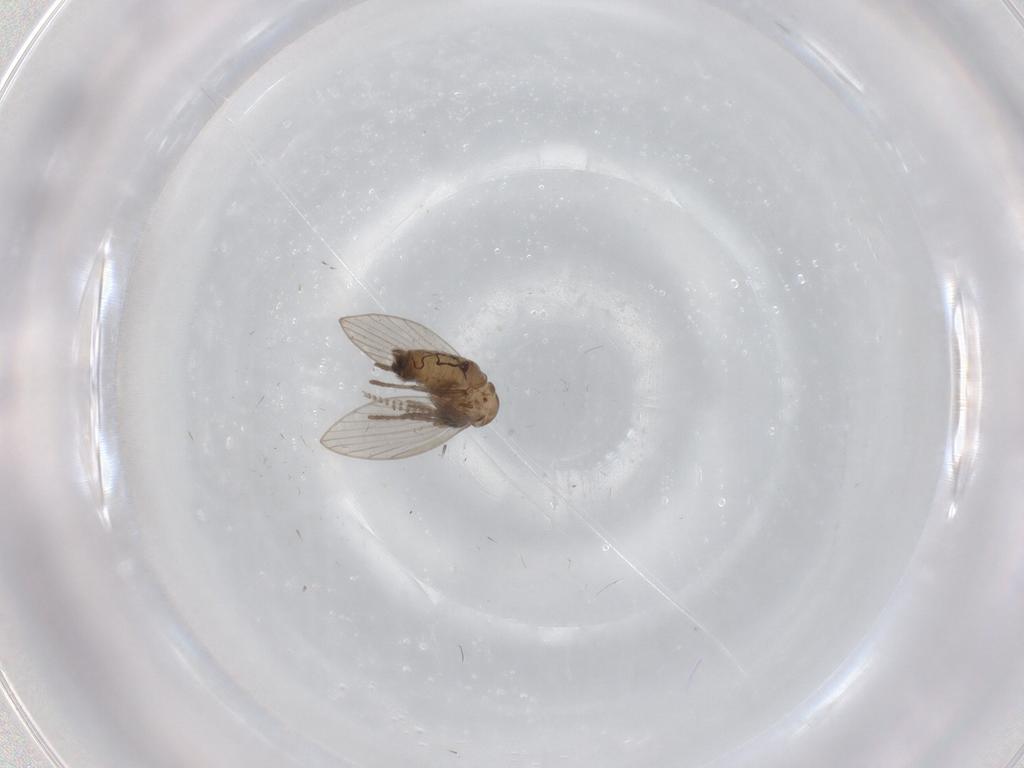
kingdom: Animalia
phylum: Arthropoda
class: Insecta
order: Diptera
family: Psychodidae
